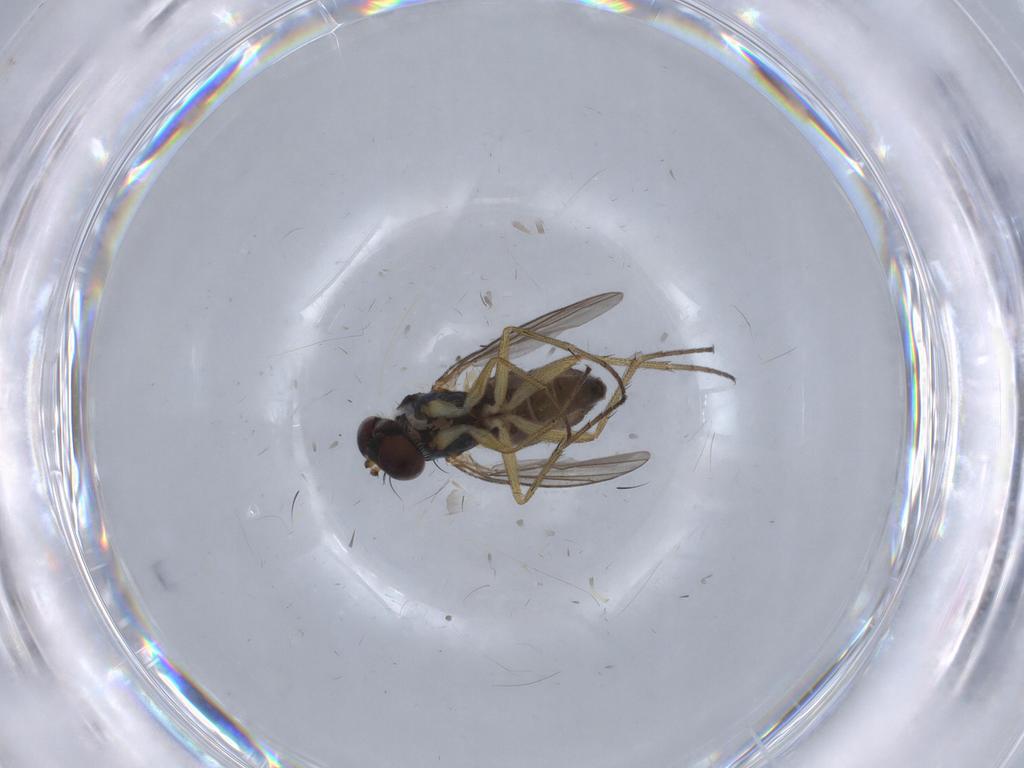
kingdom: Animalia
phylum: Arthropoda
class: Insecta
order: Diptera
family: Dolichopodidae
